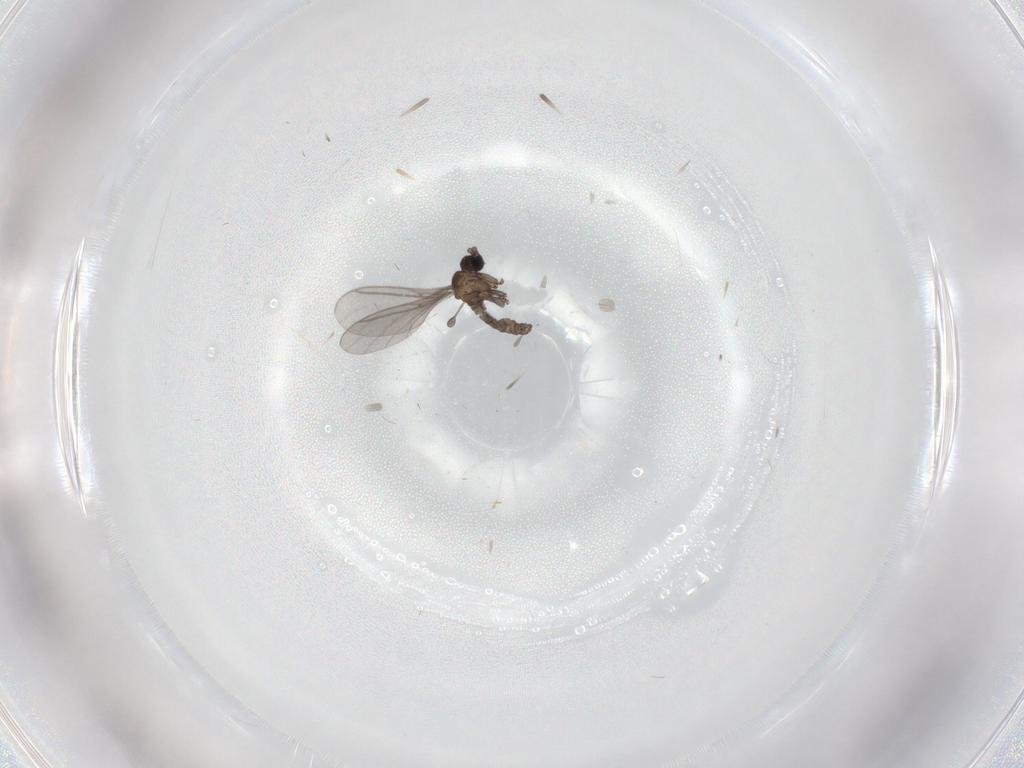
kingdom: Animalia
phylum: Arthropoda
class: Insecta
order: Diptera
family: Sciaridae
